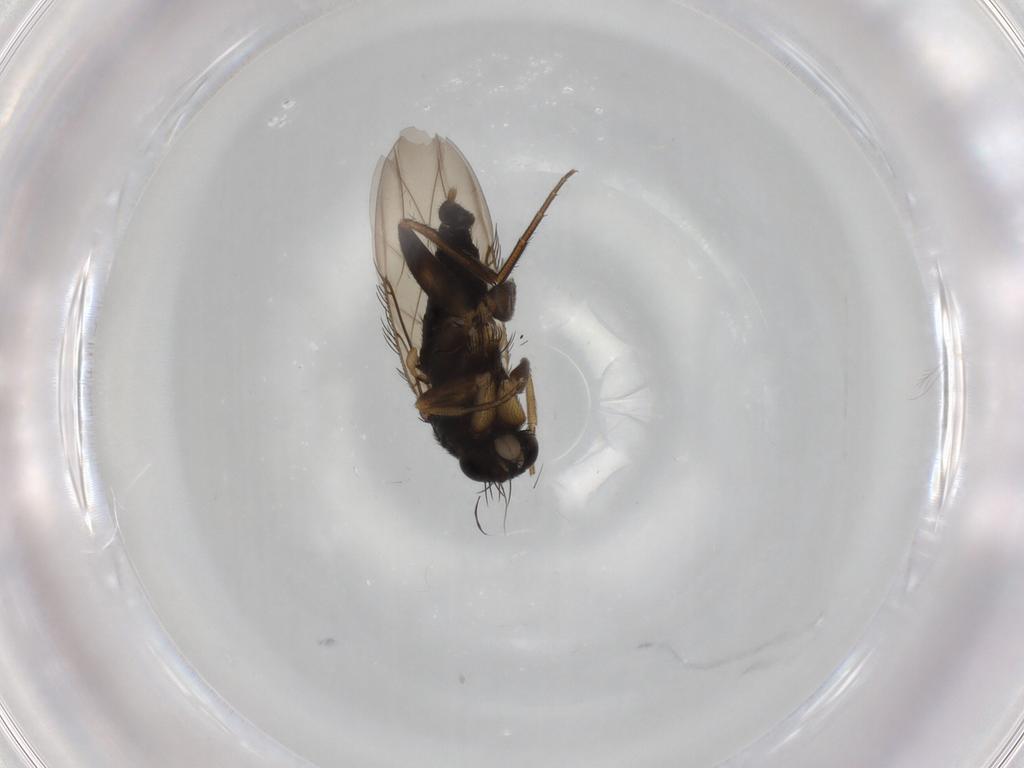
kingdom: Animalia
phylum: Arthropoda
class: Insecta
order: Diptera
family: Phoridae
